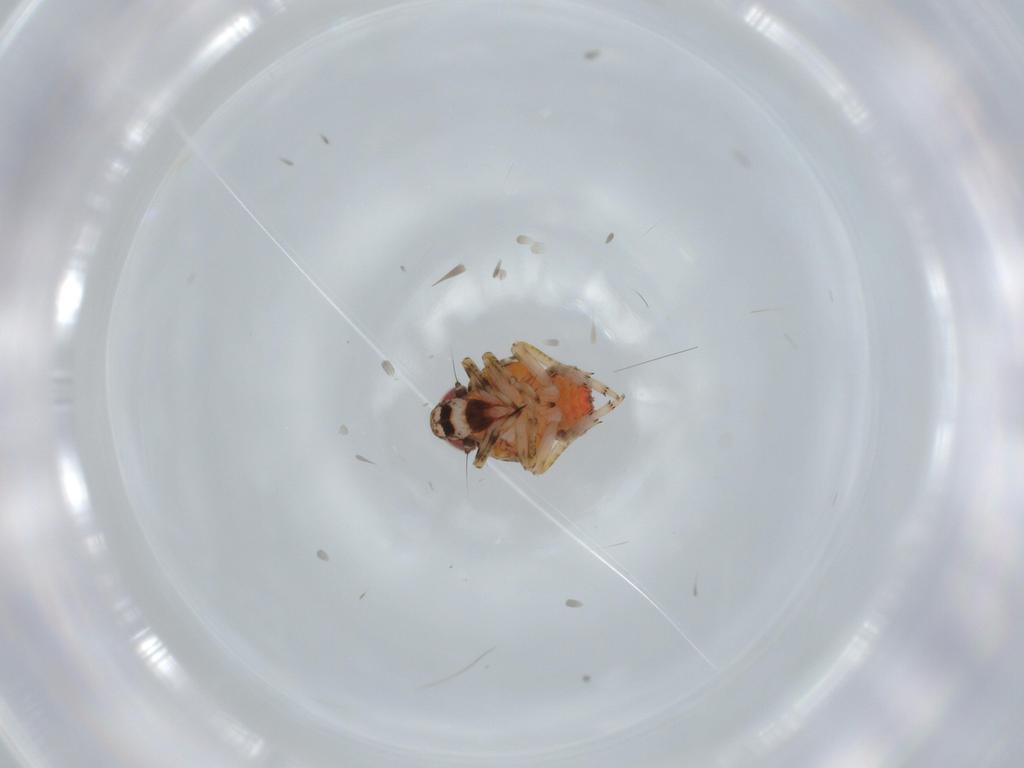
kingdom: Animalia
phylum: Arthropoda
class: Insecta
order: Hemiptera
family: Issidae
